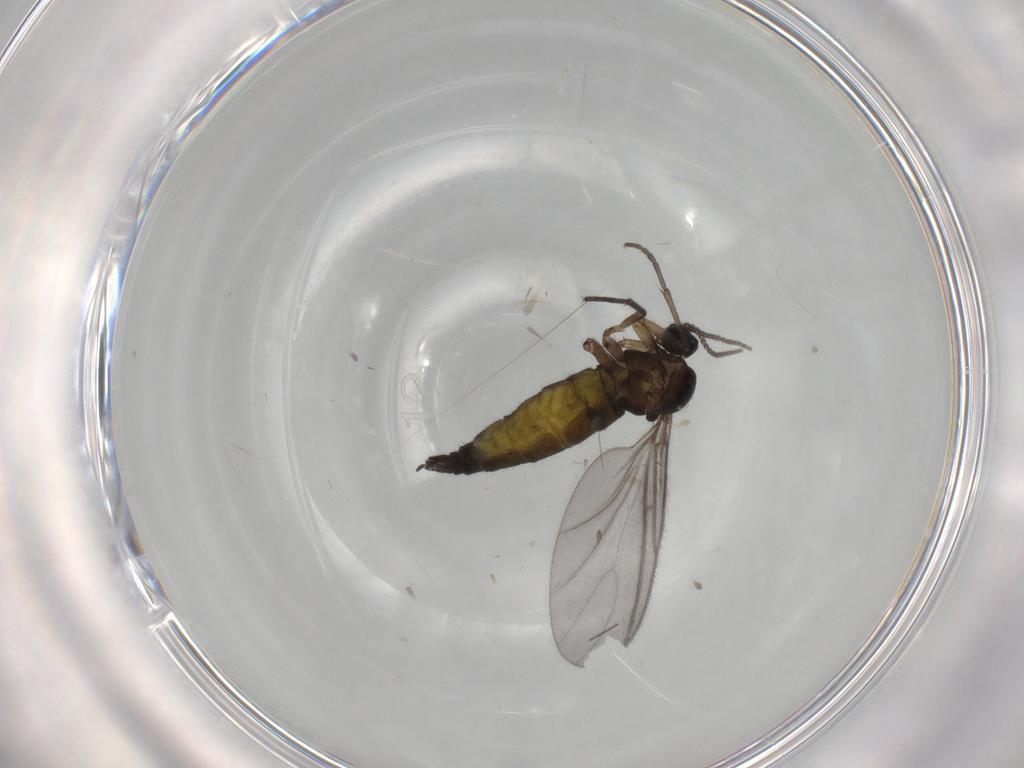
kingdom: Animalia
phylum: Arthropoda
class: Insecta
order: Diptera
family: Sciaridae
